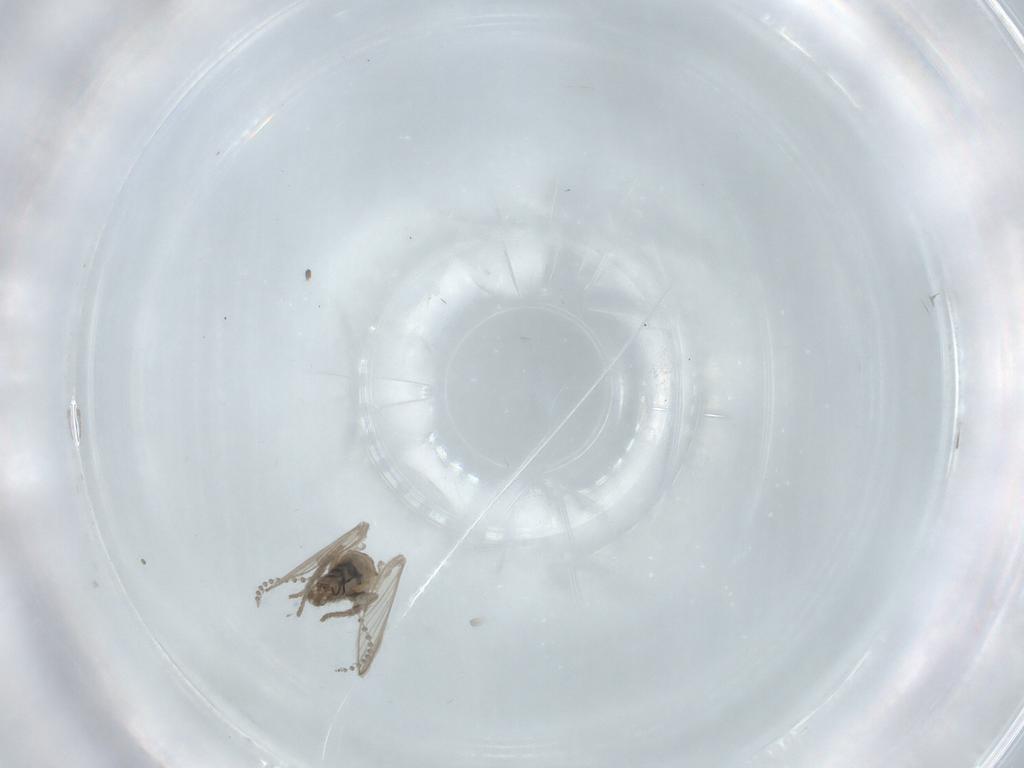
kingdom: Animalia
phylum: Arthropoda
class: Insecta
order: Diptera
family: Psychodidae
